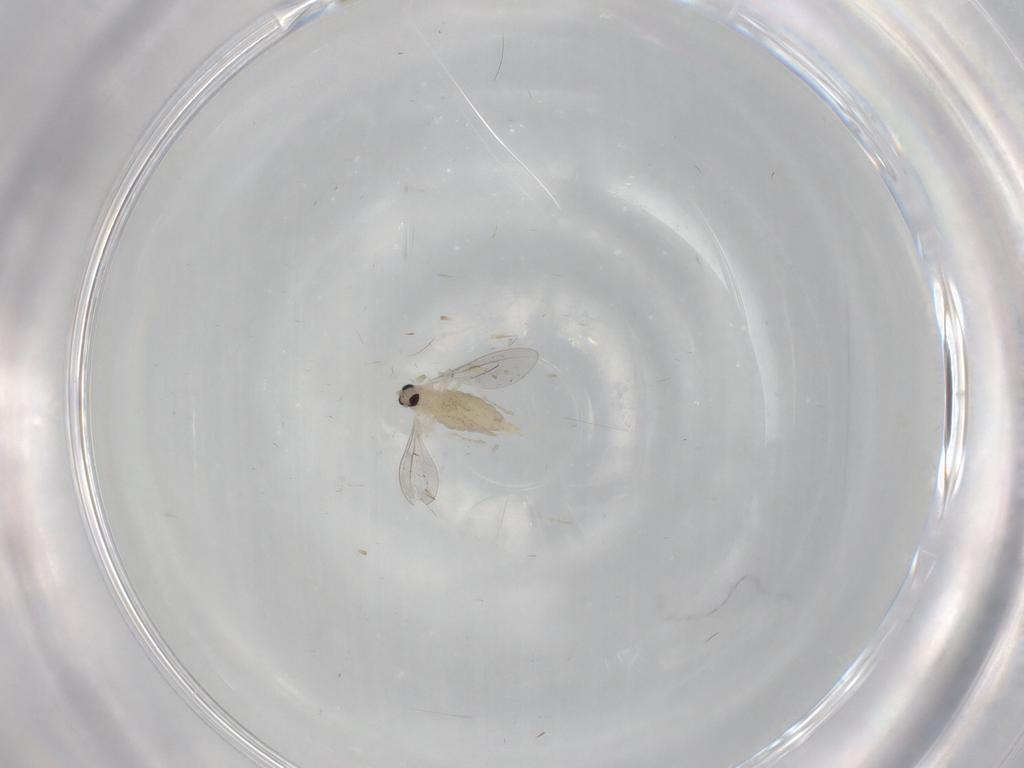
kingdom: Animalia
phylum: Arthropoda
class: Insecta
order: Diptera
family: Cecidomyiidae
